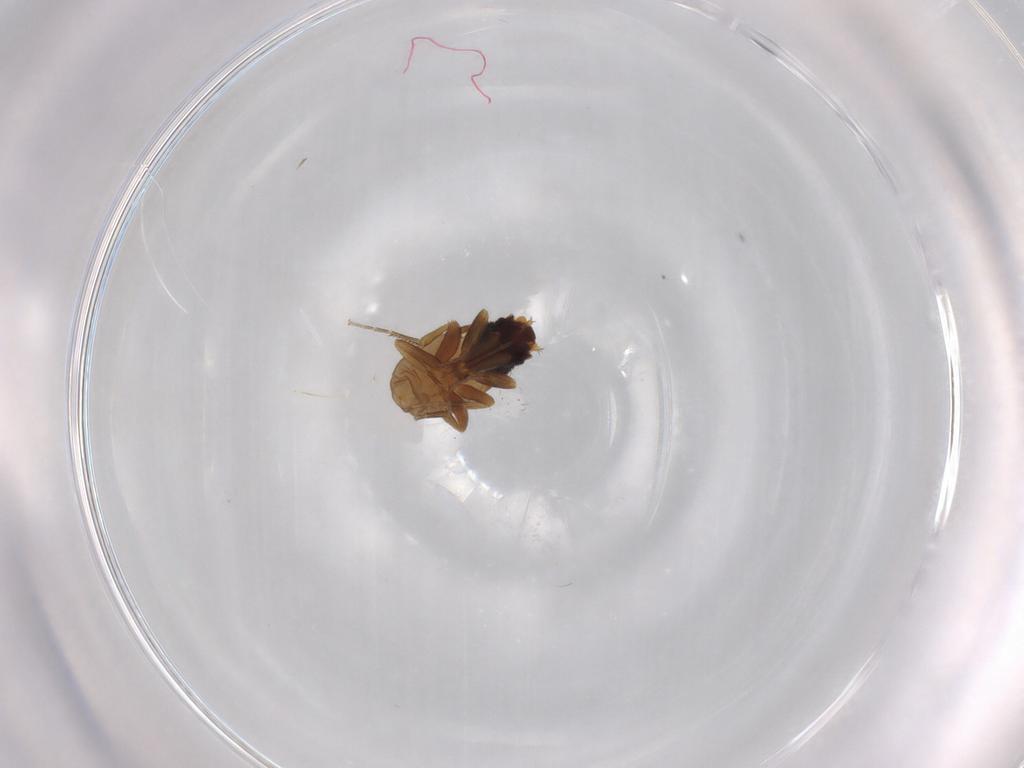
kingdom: Animalia
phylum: Arthropoda
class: Insecta
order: Diptera
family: Phoridae
